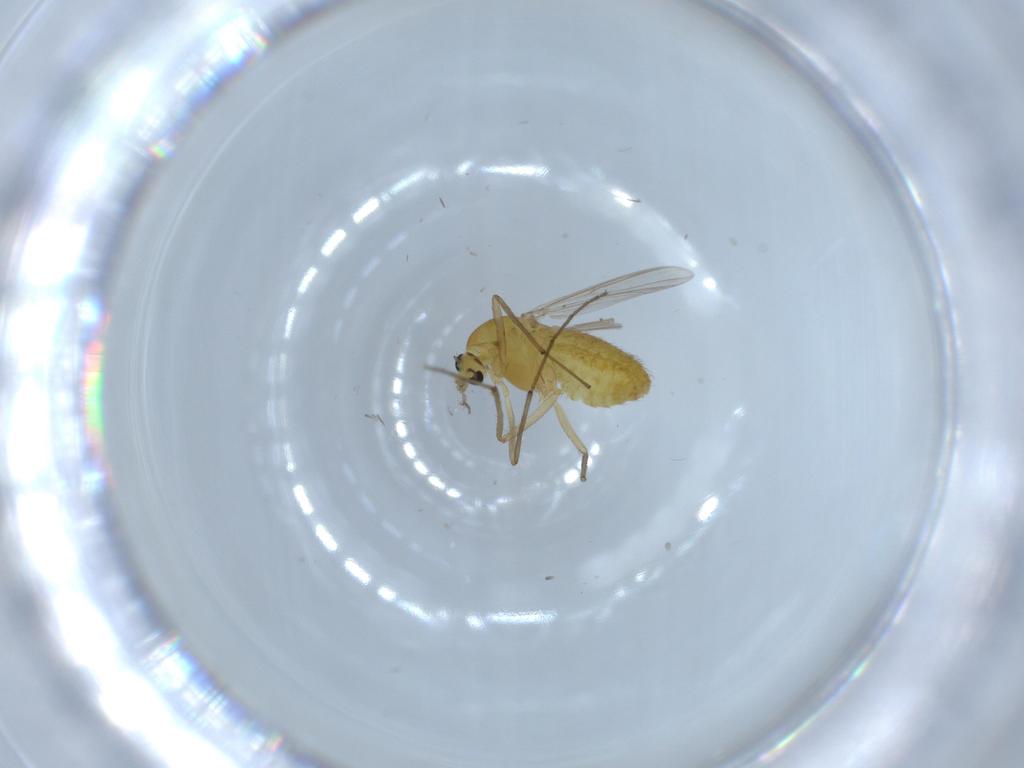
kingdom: Animalia
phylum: Arthropoda
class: Insecta
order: Diptera
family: Chironomidae
